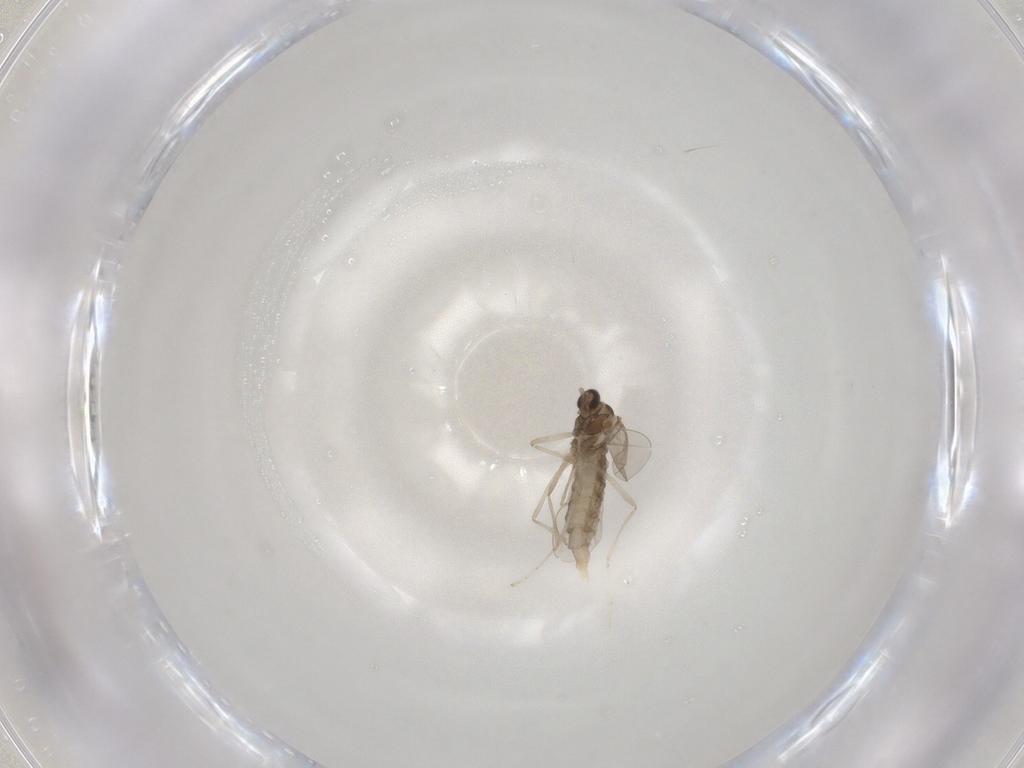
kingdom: Animalia
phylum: Arthropoda
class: Insecta
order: Diptera
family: Cecidomyiidae
